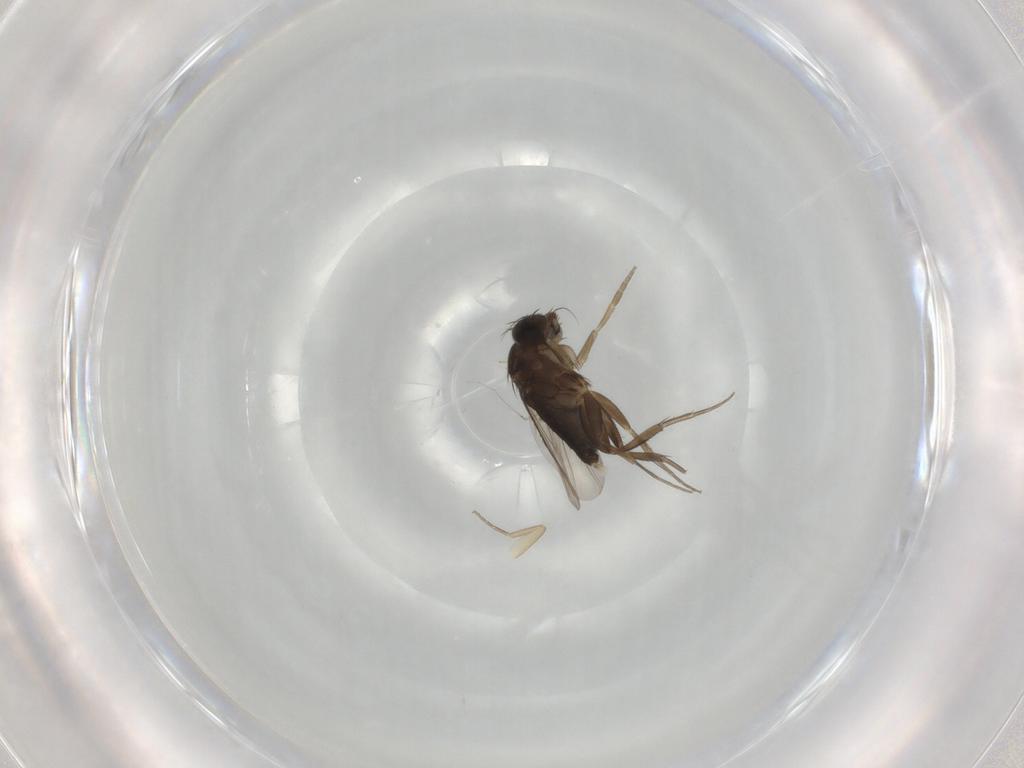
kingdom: Animalia
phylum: Arthropoda
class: Insecta
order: Diptera
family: Phoridae
